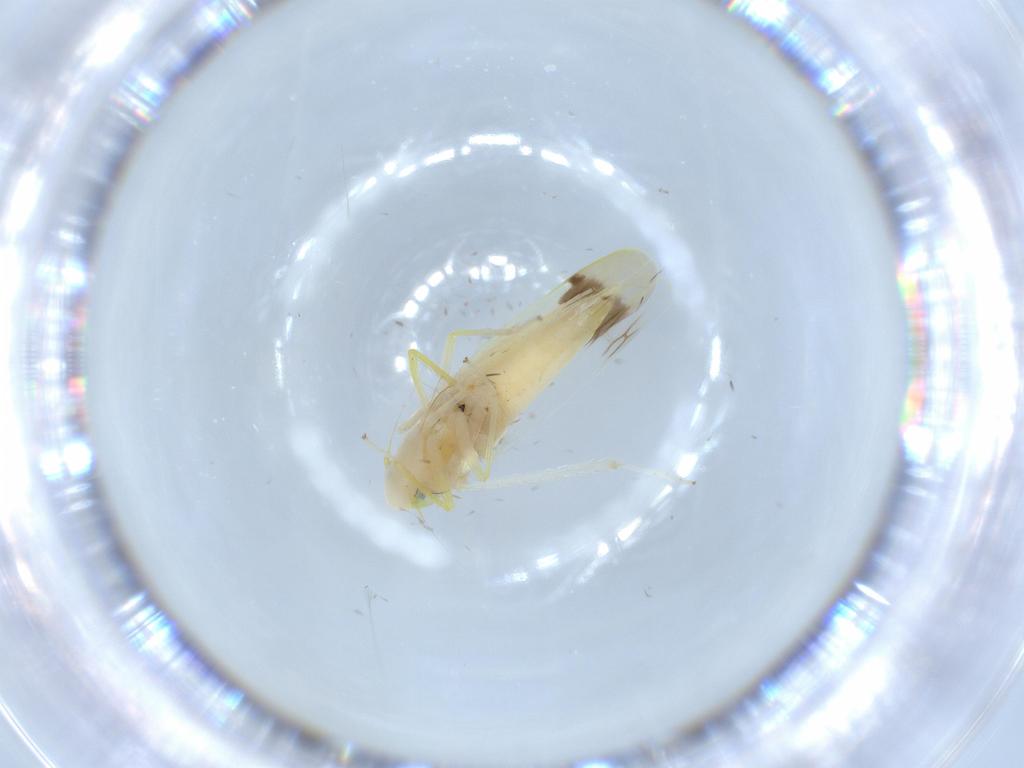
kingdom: Animalia
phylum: Arthropoda
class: Insecta
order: Hemiptera
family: Cicadellidae
